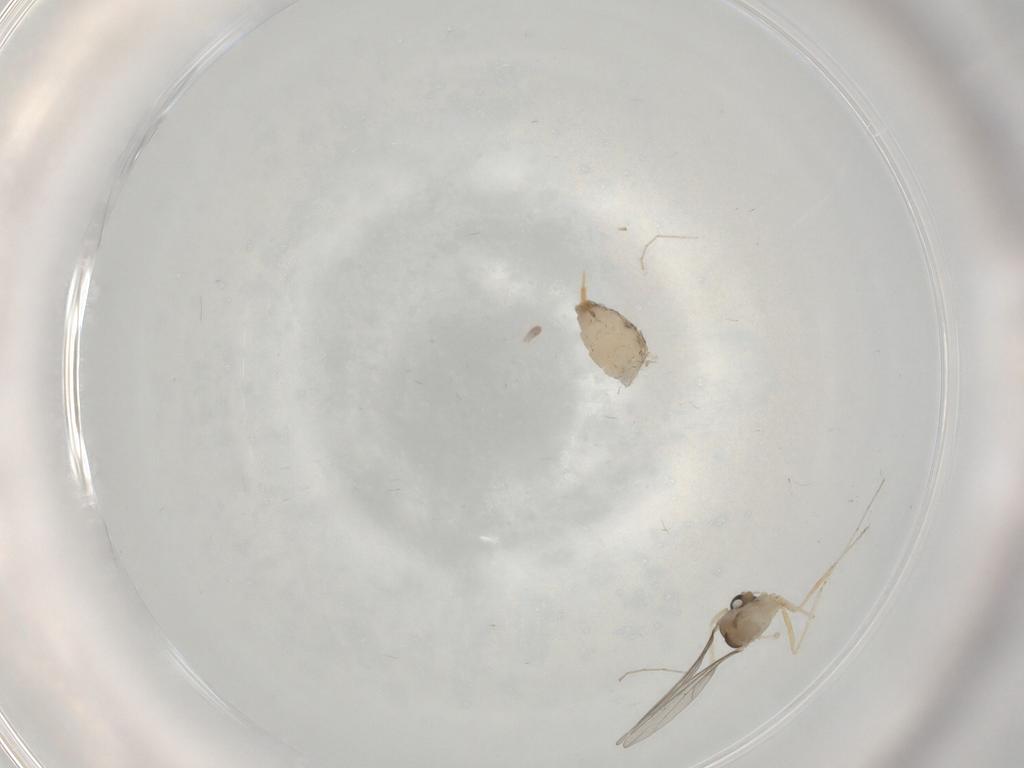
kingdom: Animalia
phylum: Arthropoda
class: Insecta
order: Diptera
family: Cecidomyiidae
